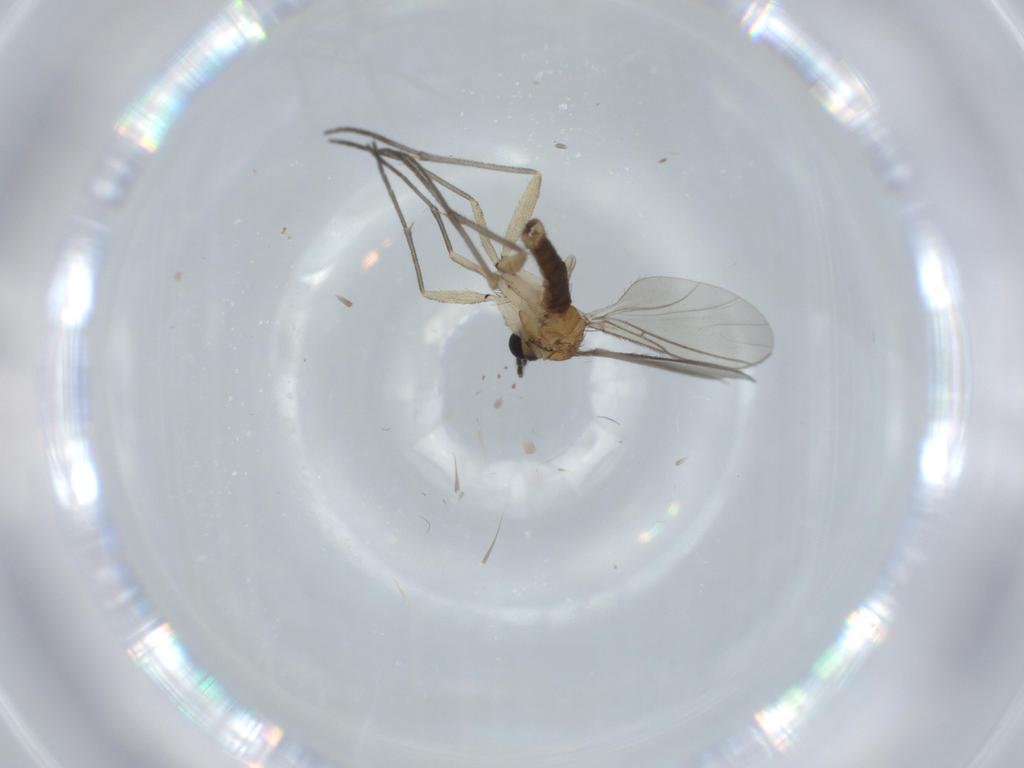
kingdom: Animalia
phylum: Arthropoda
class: Insecta
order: Diptera
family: Sciaridae
